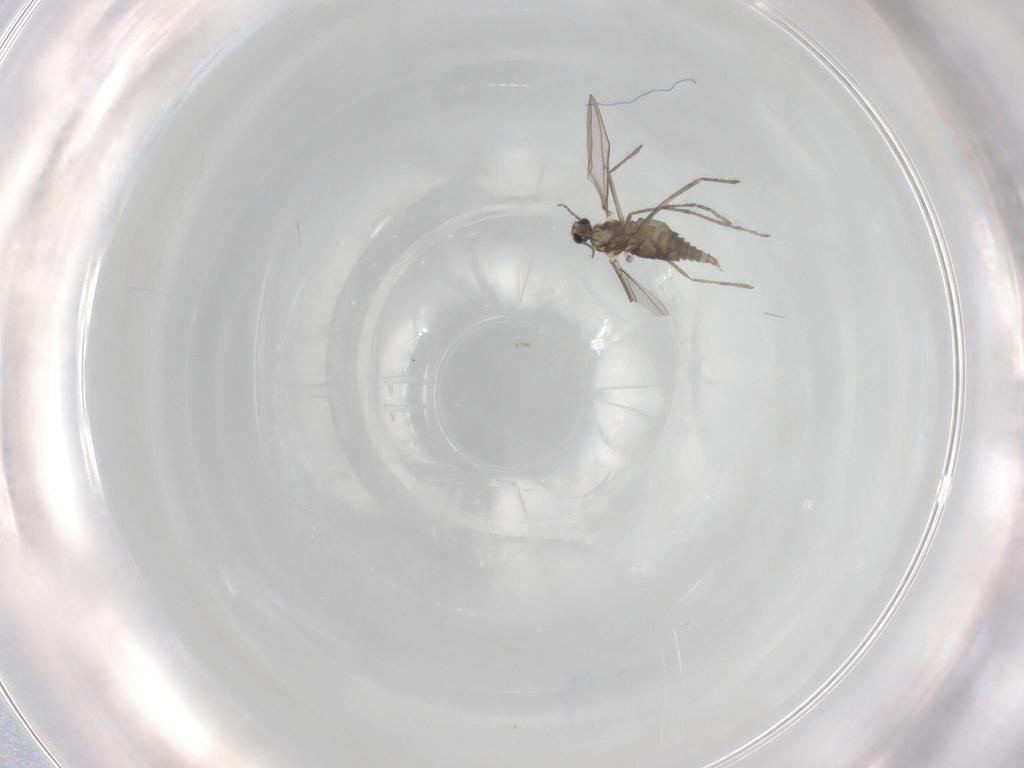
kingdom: Animalia
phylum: Arthropoda
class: Insecta
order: Diptera
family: Cecidomyiidae
